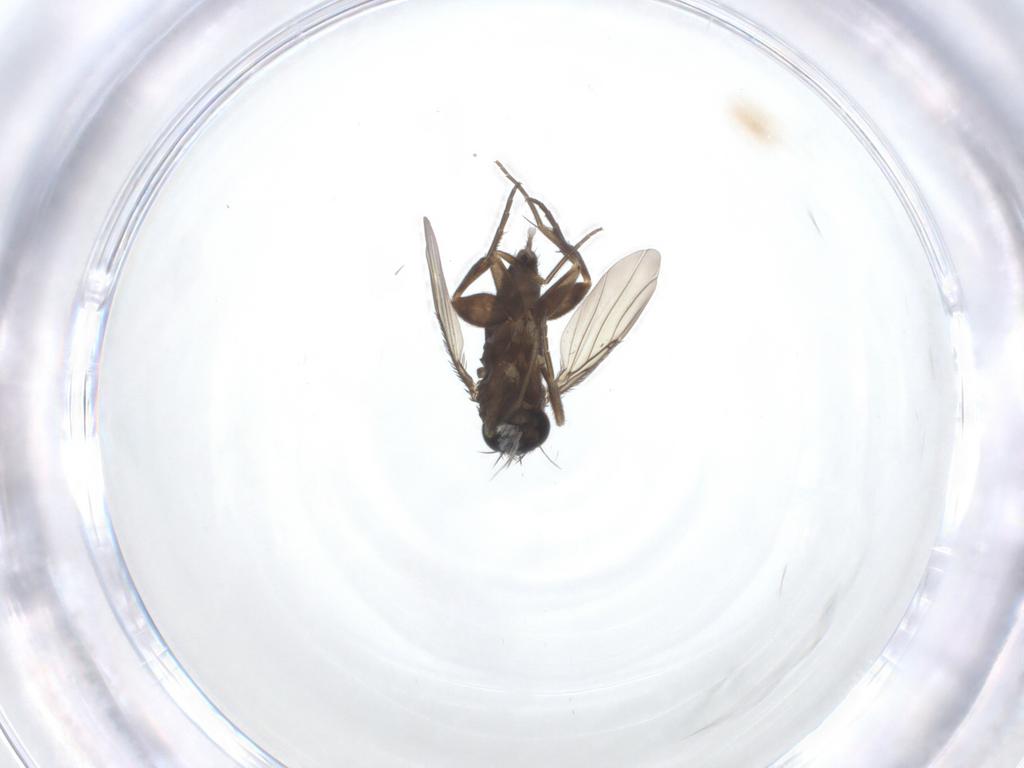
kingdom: Animalia
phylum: Arthropoda
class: Insecta
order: Diptera
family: Phoridae
